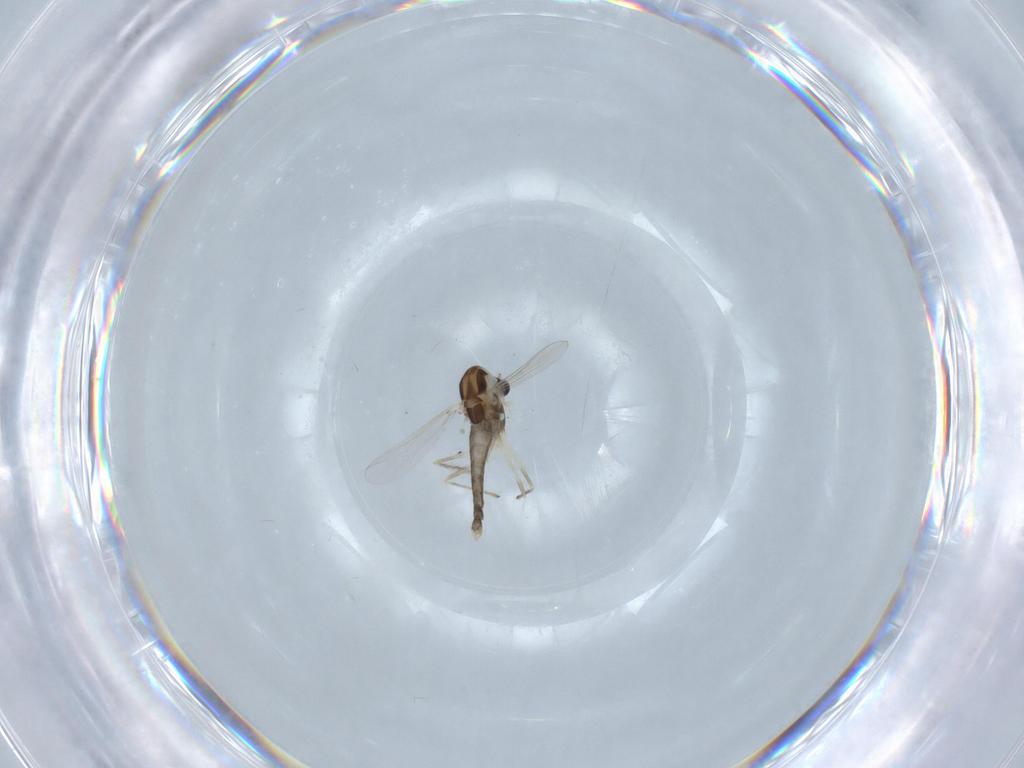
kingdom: Animalia
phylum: Arthropoda
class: Insecta
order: Diptera
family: Chironomidae
